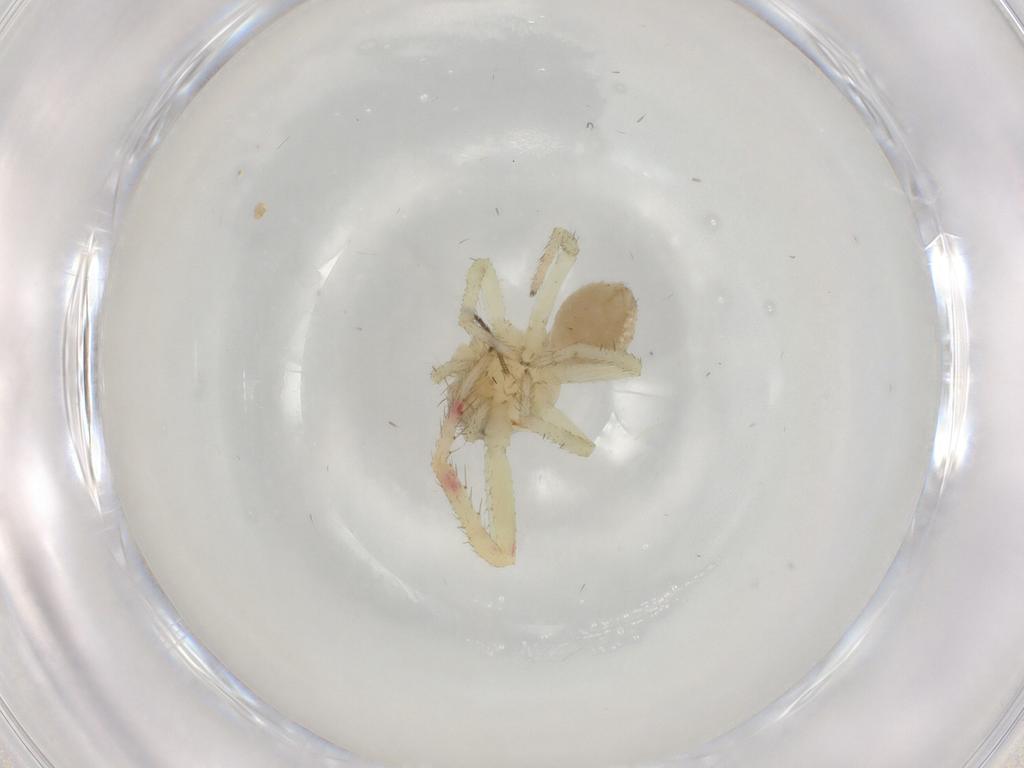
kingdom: Animalia
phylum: Arthropoda
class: Arachnida
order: Araneae
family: Thomisidae
